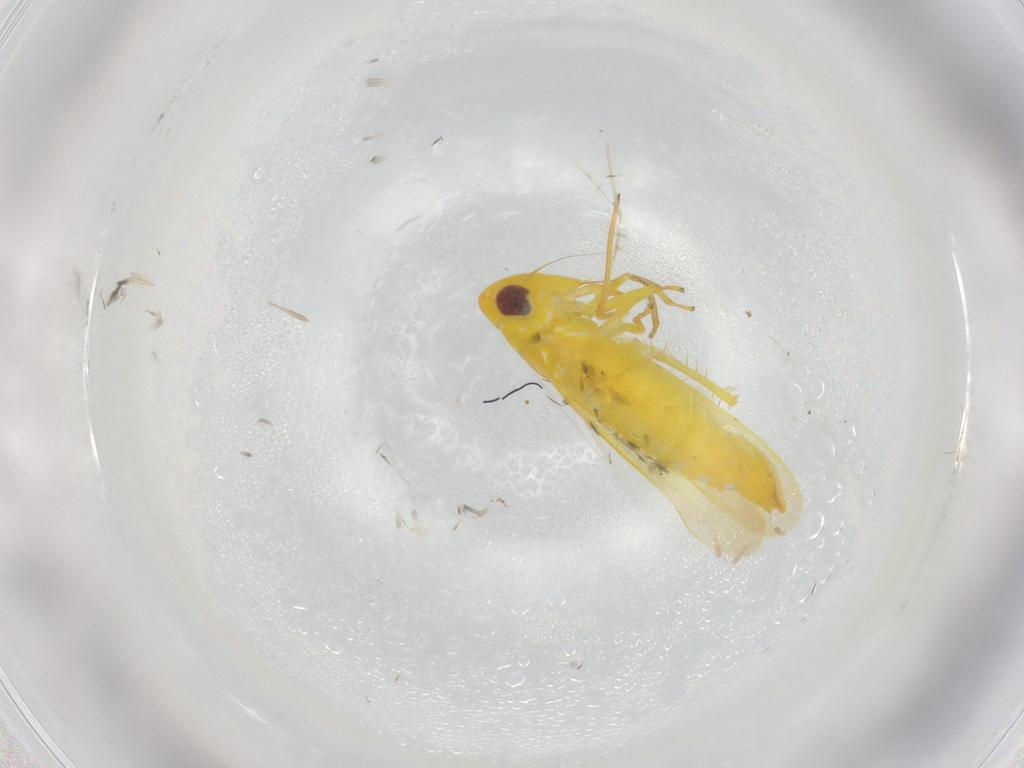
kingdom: Animalia
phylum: Arthropoda
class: Insecta
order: Hemiptera
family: Cicadellidae
